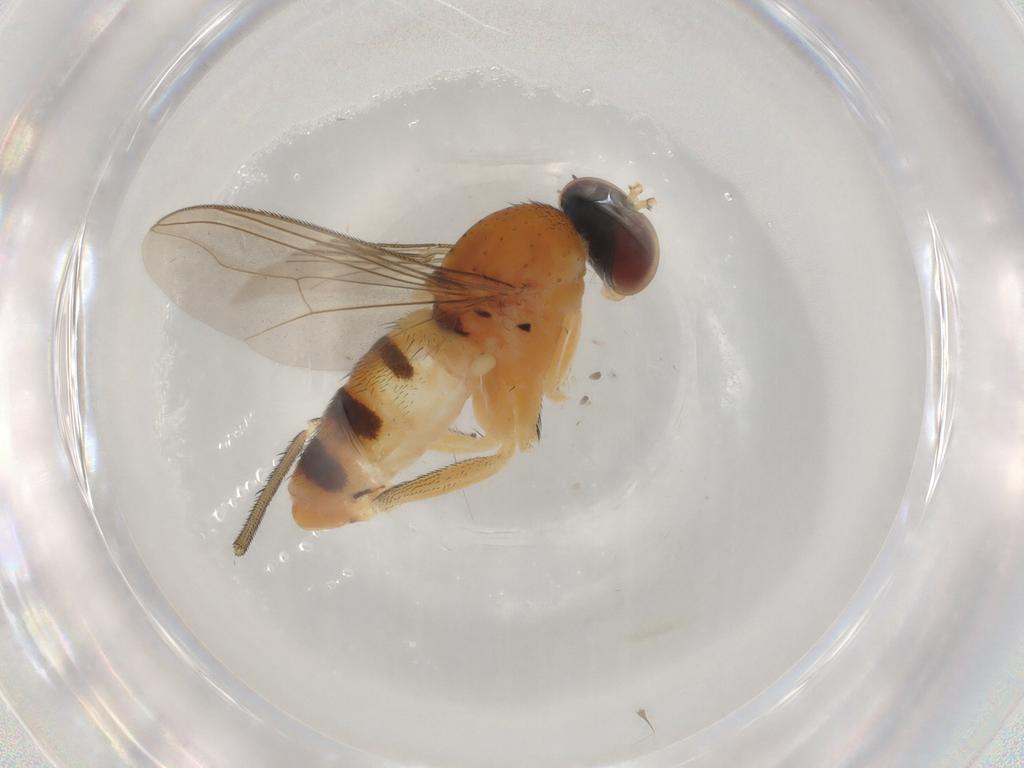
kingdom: Animalia
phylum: Arthropoda
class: Insecta
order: Diptera
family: Dolichopodidae
